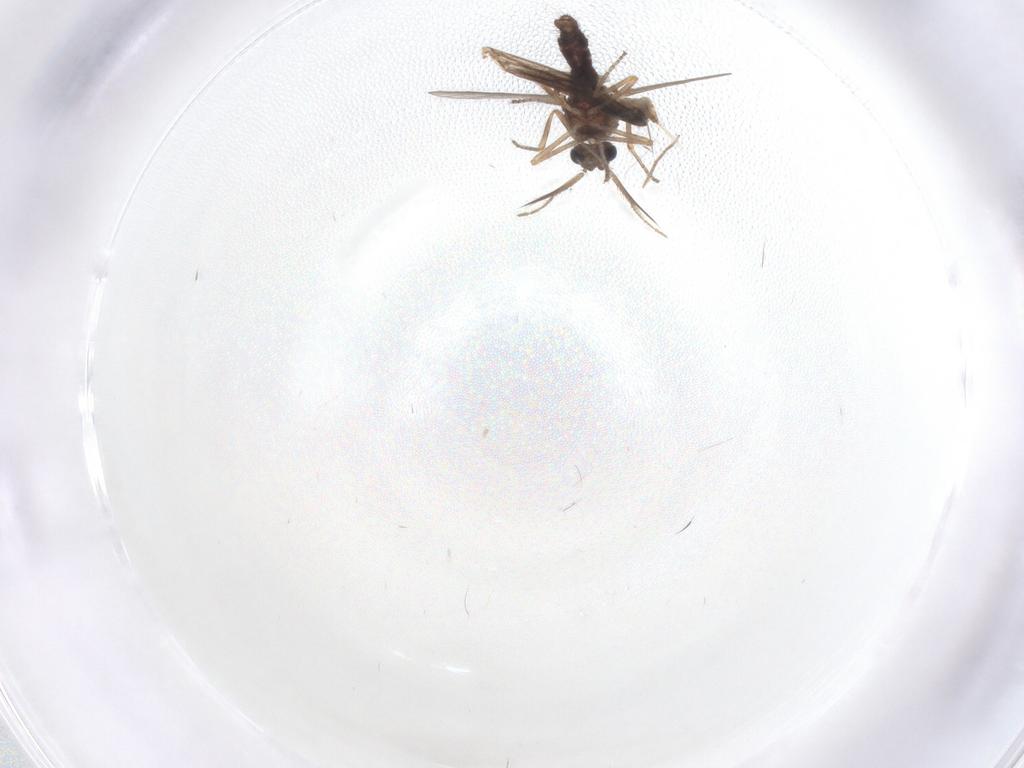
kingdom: Animalia
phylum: Arthropoda
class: Insecta
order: Diptera
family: Ceratopogonidae
